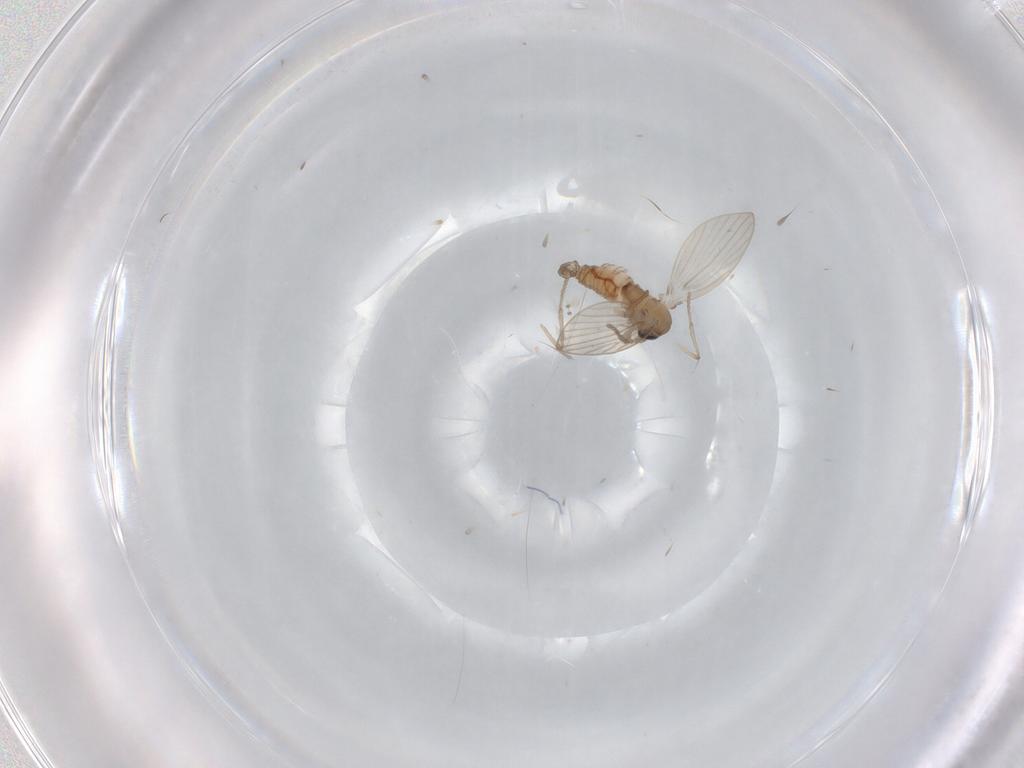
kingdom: Animalia
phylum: Arthropoda
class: Insecta
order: Diptera
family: Psychodidae
